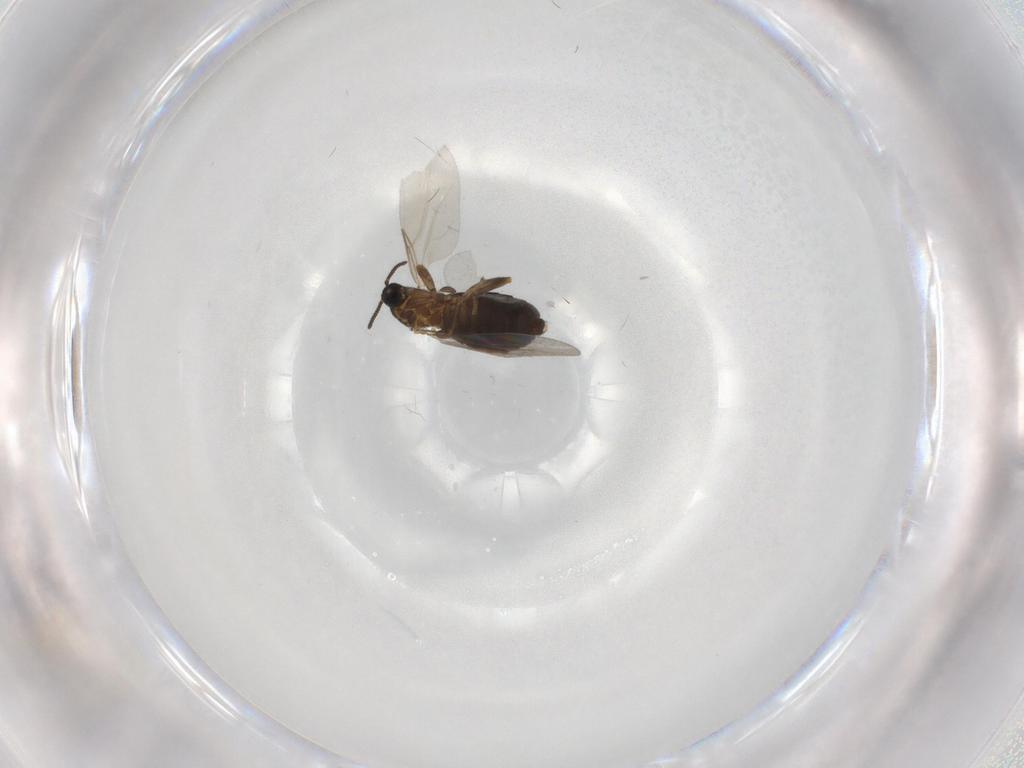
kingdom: Animalia
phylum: Arthropoda
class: Insecta
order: Diptera
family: Scatopsidae
